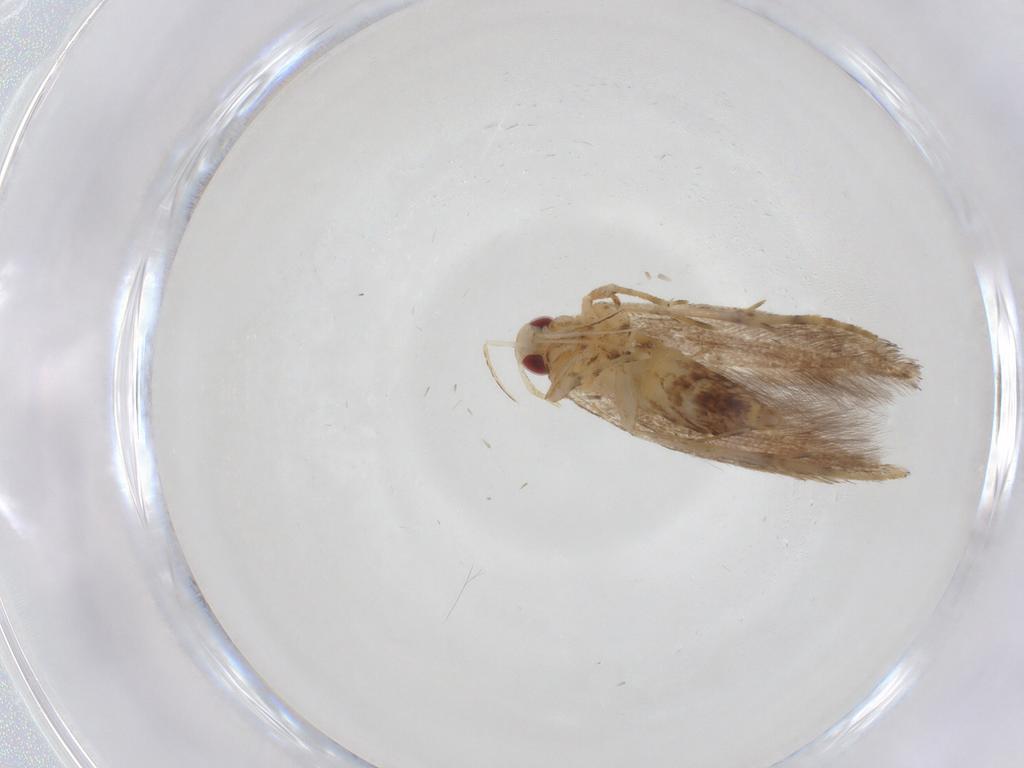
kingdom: Animalia
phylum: Arthropoda
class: Insecta
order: Lepidoptera
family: Cosmopterigidae
